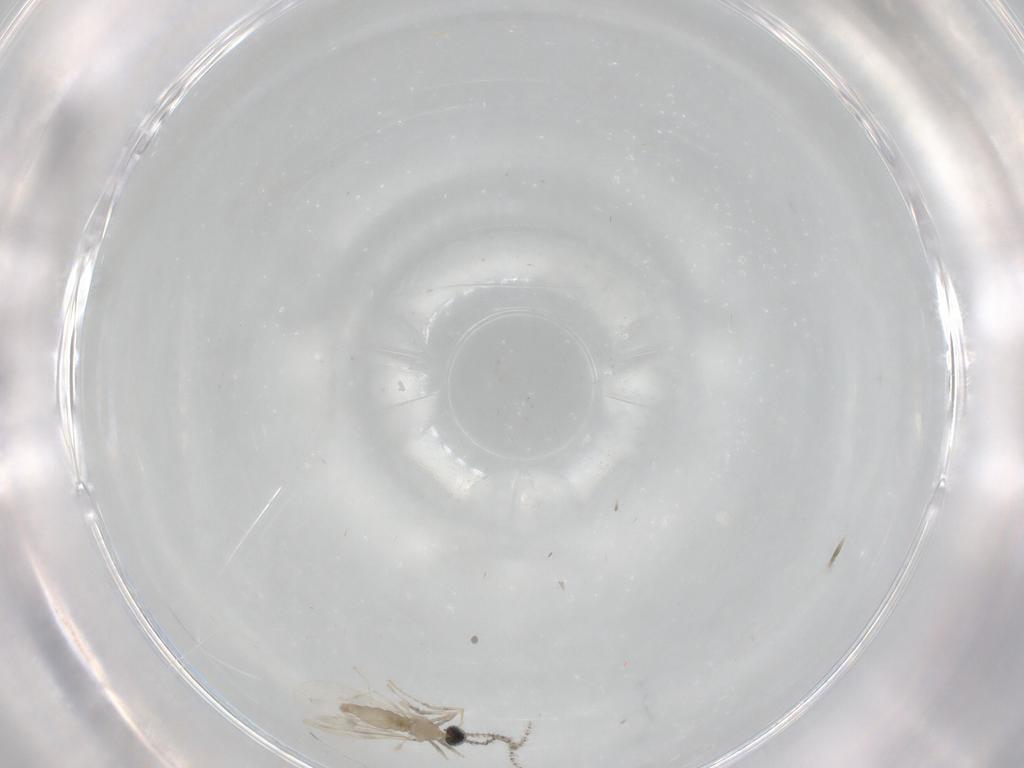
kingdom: Animalia
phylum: Arthropoda
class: Insecta
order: Diptera
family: Cecidomyiidae
